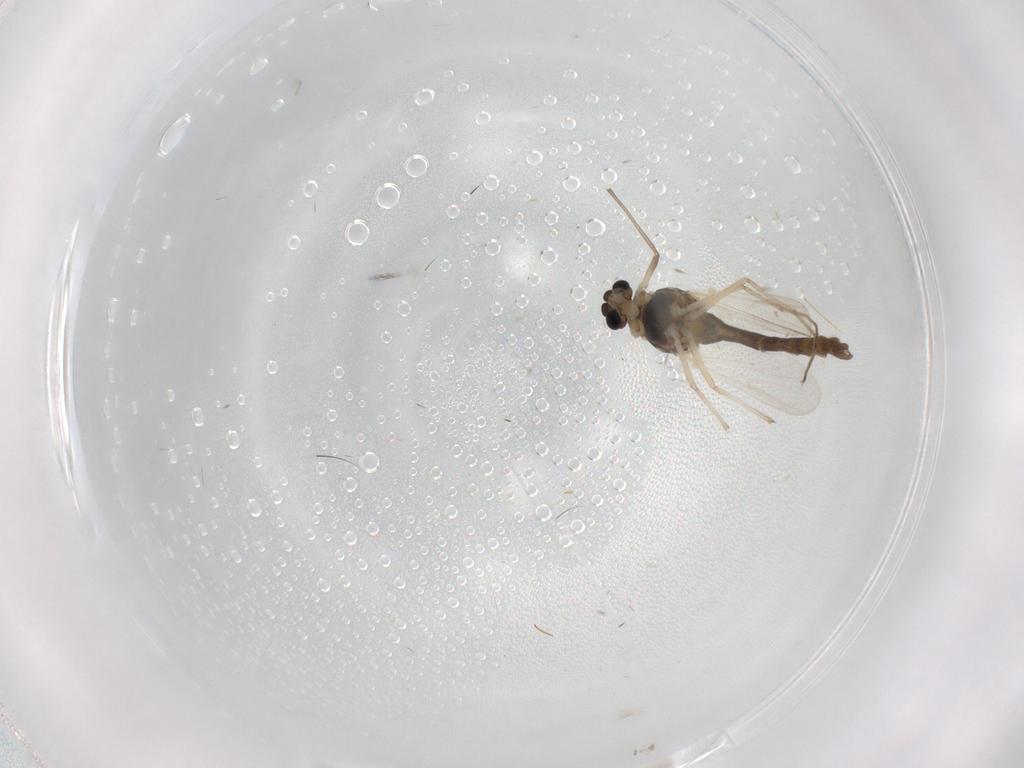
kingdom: Animalia
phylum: Arthropoda
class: Insecta
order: Diptera
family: Chironomidae
